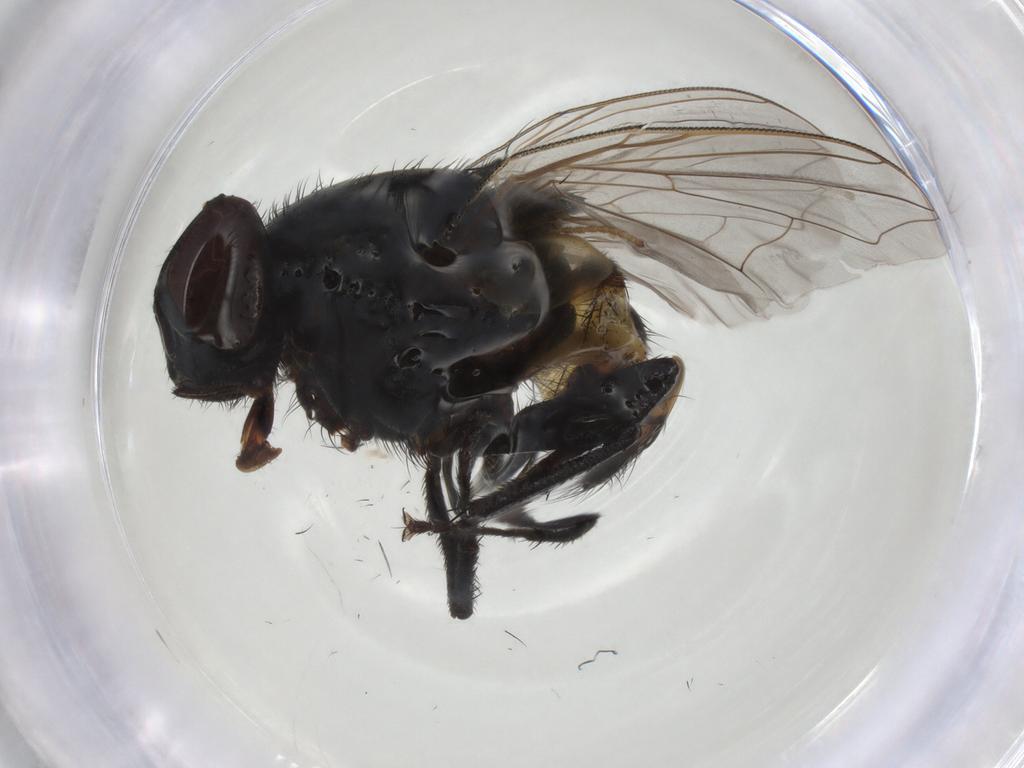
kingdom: Animalia
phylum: Arthropoda
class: Insecta
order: Diptera
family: Muscidae
